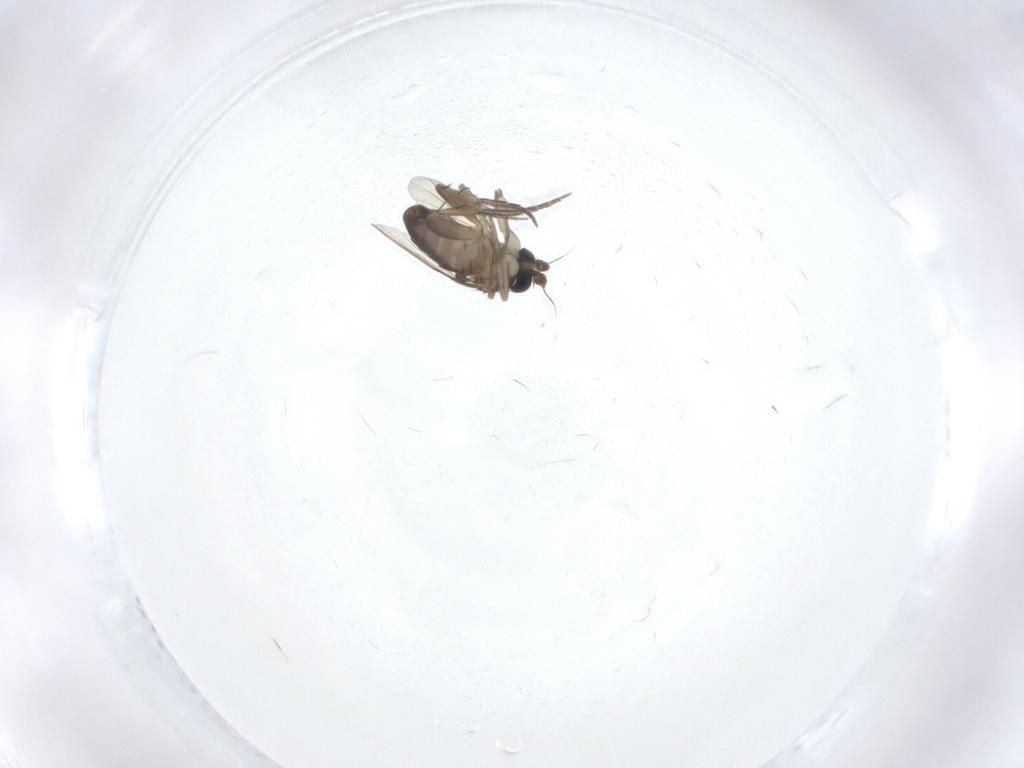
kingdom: Animalia
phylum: Arthropoda
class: Insecta
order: Diptera
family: Phoridae
